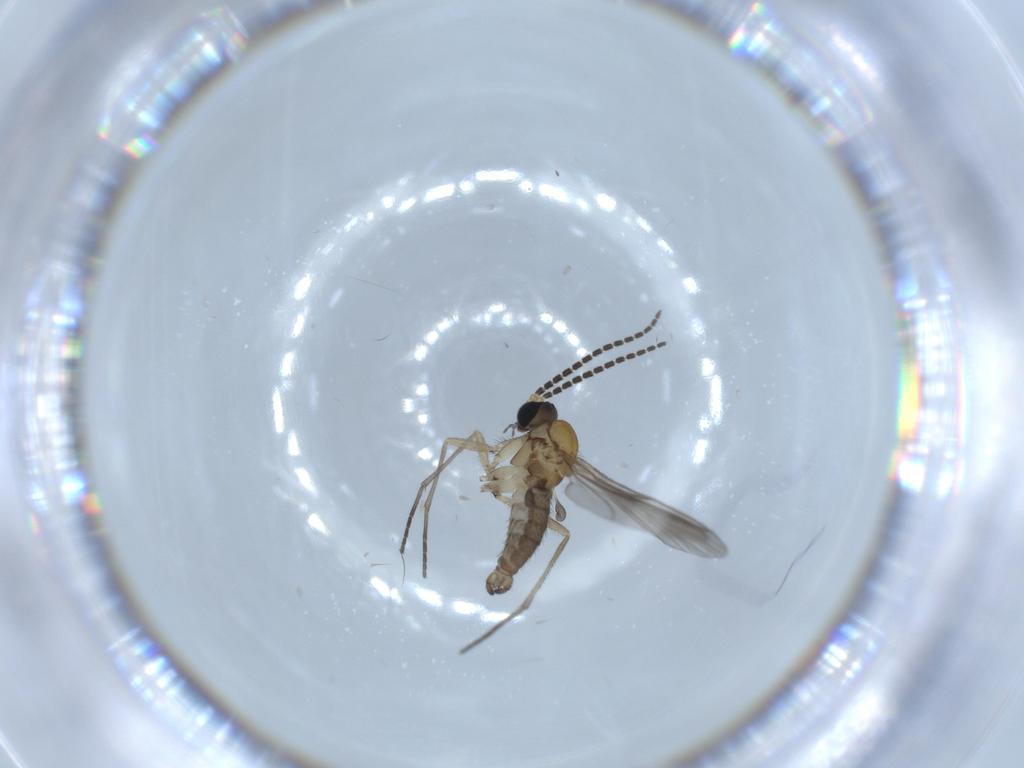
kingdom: Animalia
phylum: Arthropoda
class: Insecta
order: Diptera
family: Sciaridae
